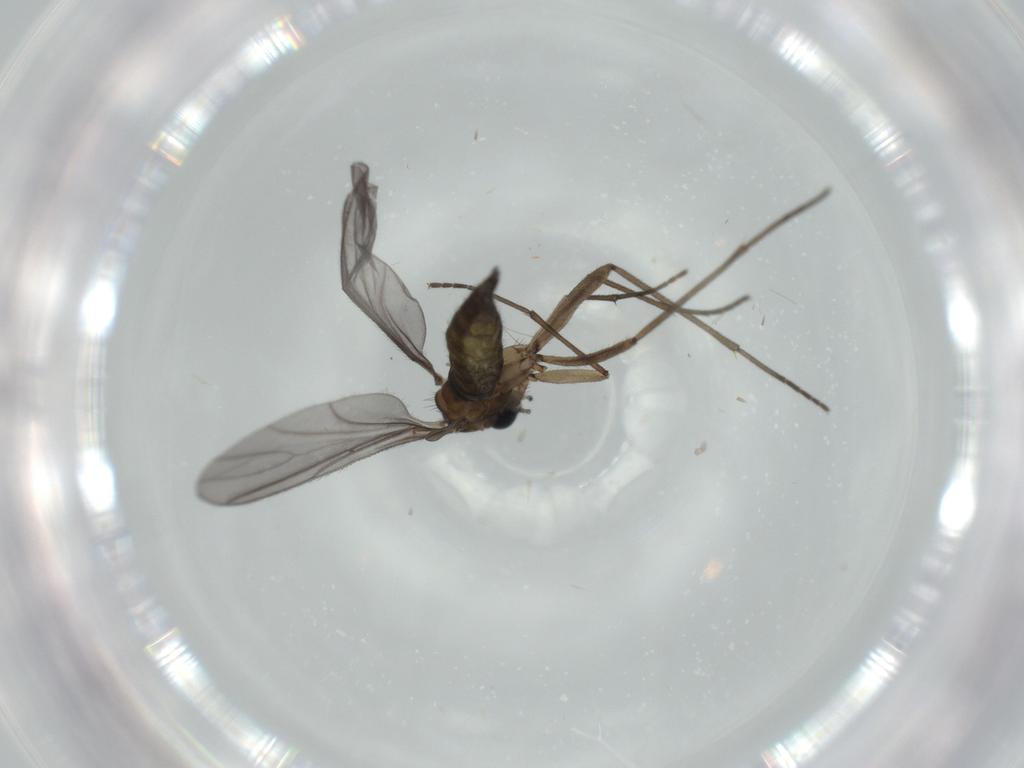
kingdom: Animalia
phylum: Arthropoda
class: Insecta
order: Diptera
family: Sciaridae
